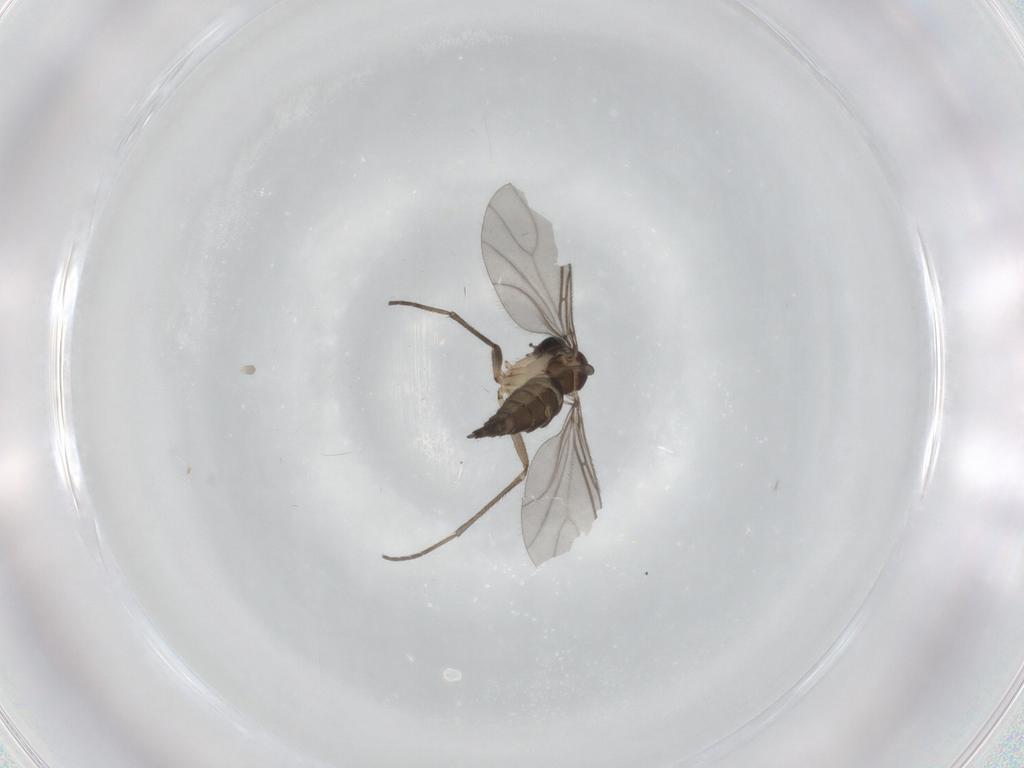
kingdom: Animalia
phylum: Arthropoda
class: Insecta
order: Diptera
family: Sciaridae
